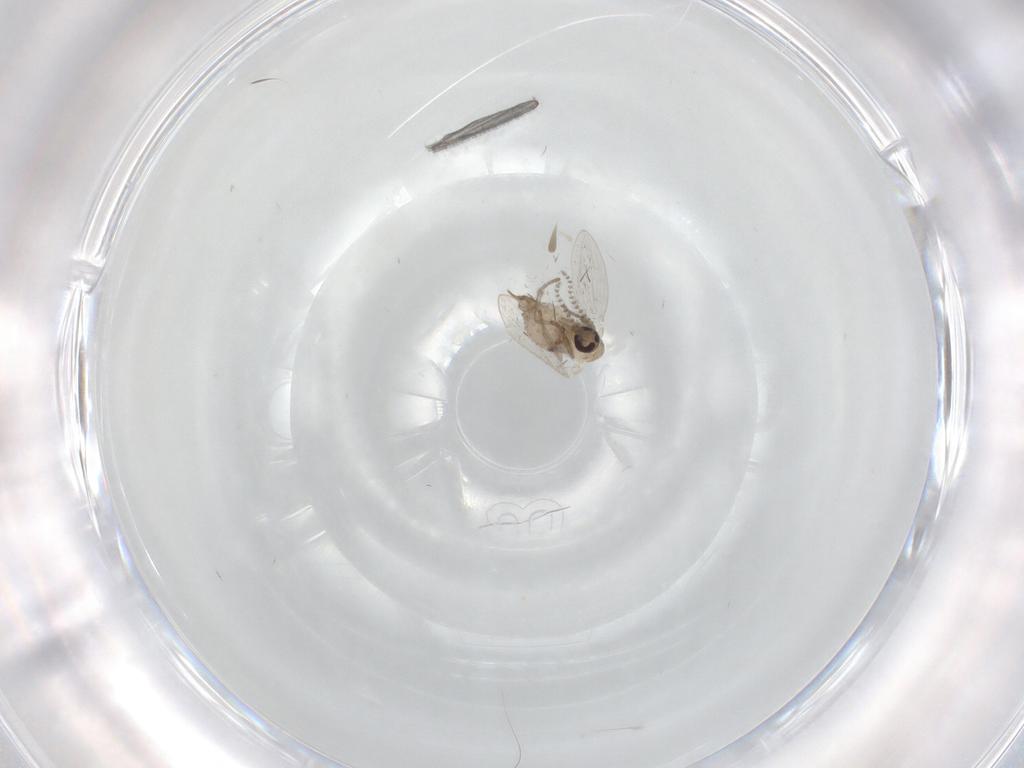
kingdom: Animalia
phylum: Arthropoda
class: Insecta
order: Diptera
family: Psychodidae
